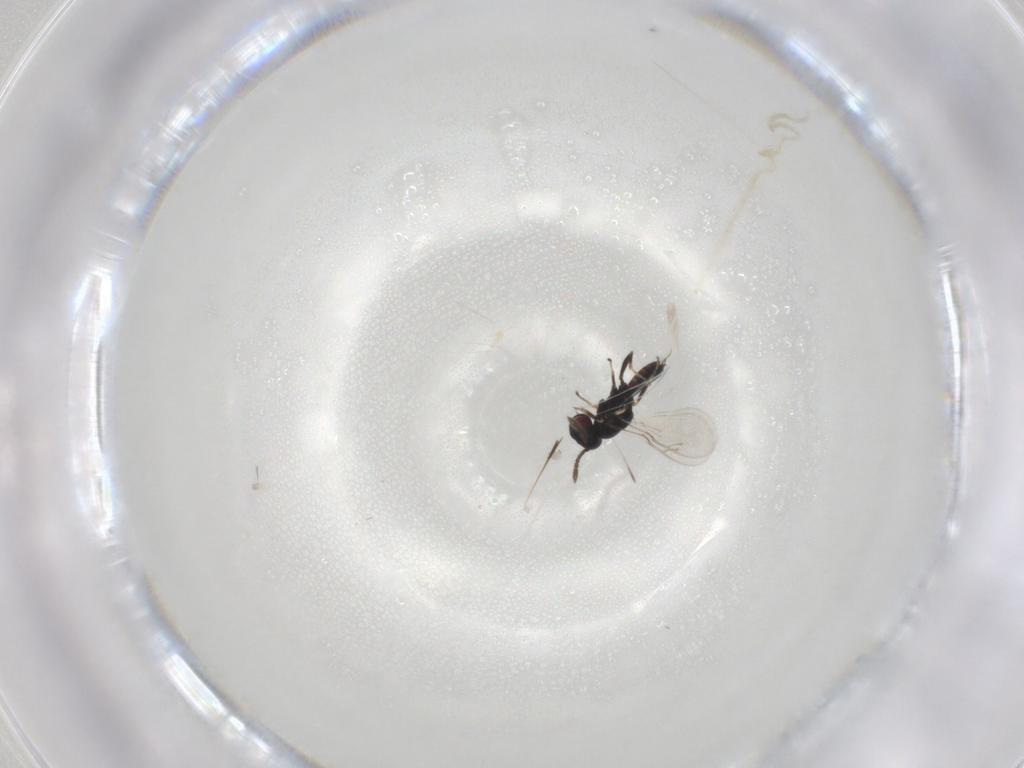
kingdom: Animalia
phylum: Arthropoda
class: Insecta
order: Hymenoptera
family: Pteromalidae
